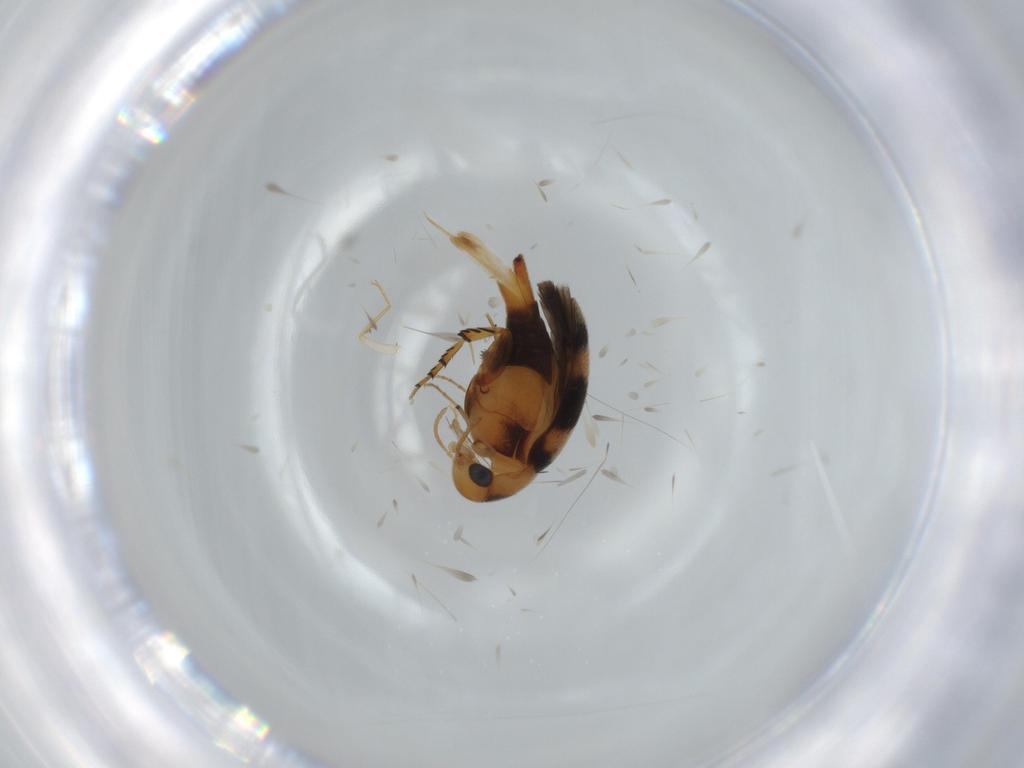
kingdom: Animalia
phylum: Arthropoda
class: Insecta
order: Coleoptera
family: Mordellidae
